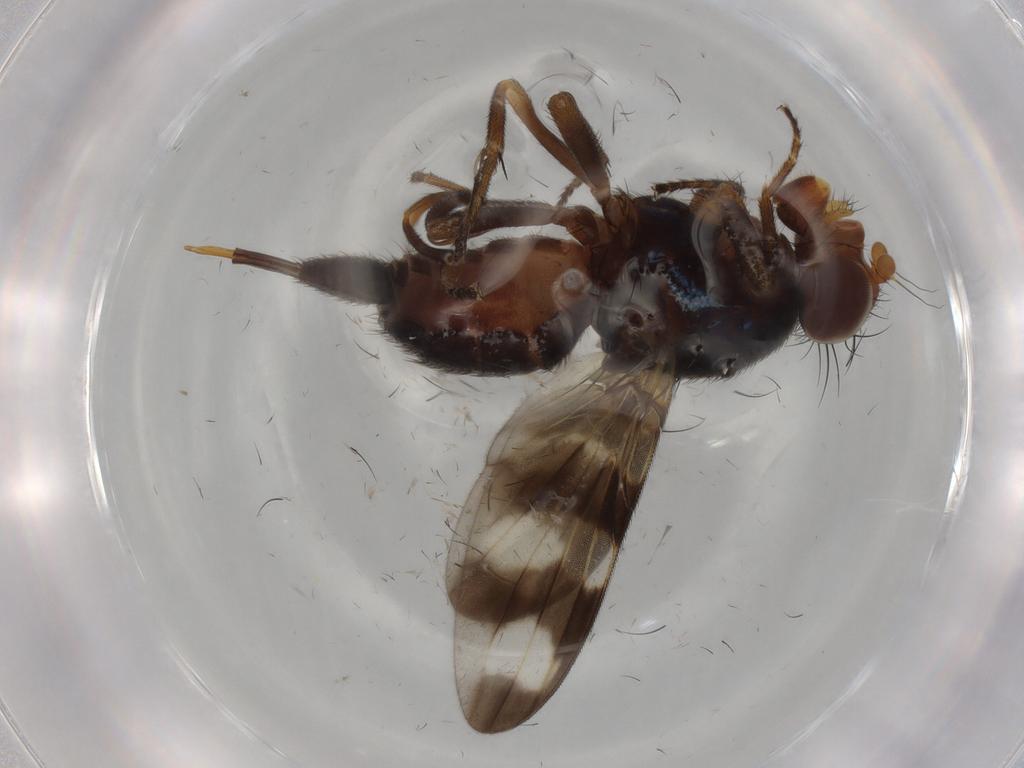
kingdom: Animalia
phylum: Arthropoda
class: Insecta
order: Diptera
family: Chironomidae
